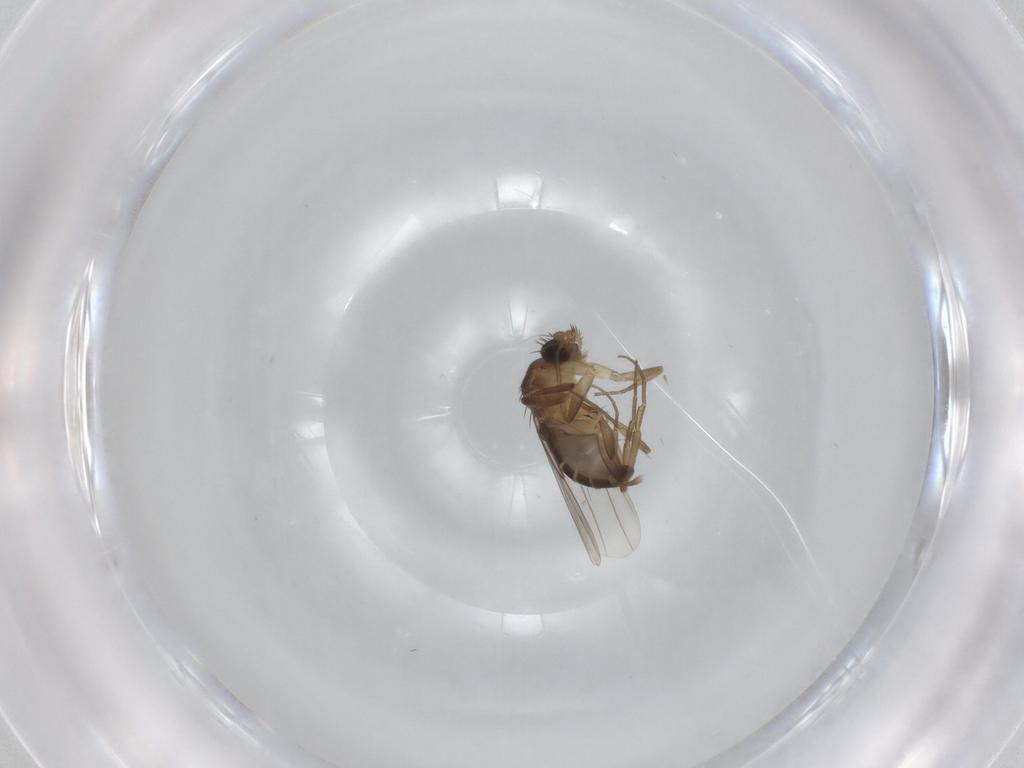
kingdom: Animalia
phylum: Arthropoda
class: Insecta
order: Diptera
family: Phoridae
